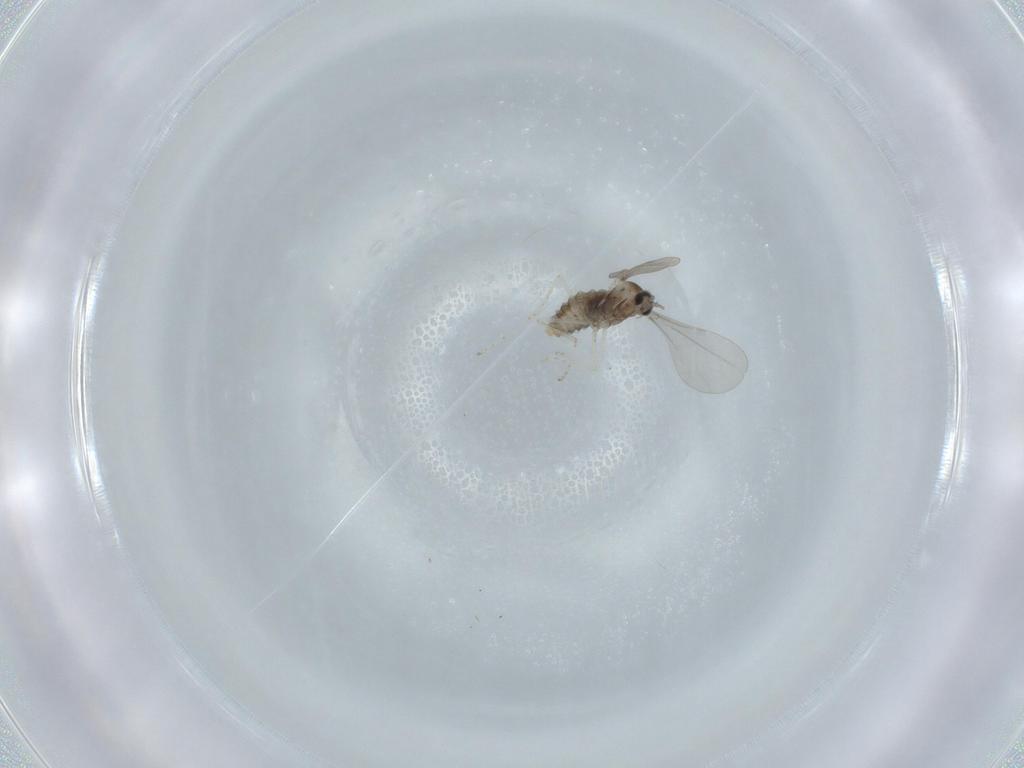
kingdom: Animalia
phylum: Arthropoda
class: Insecta
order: Diptera
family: Cecidomyiidae
